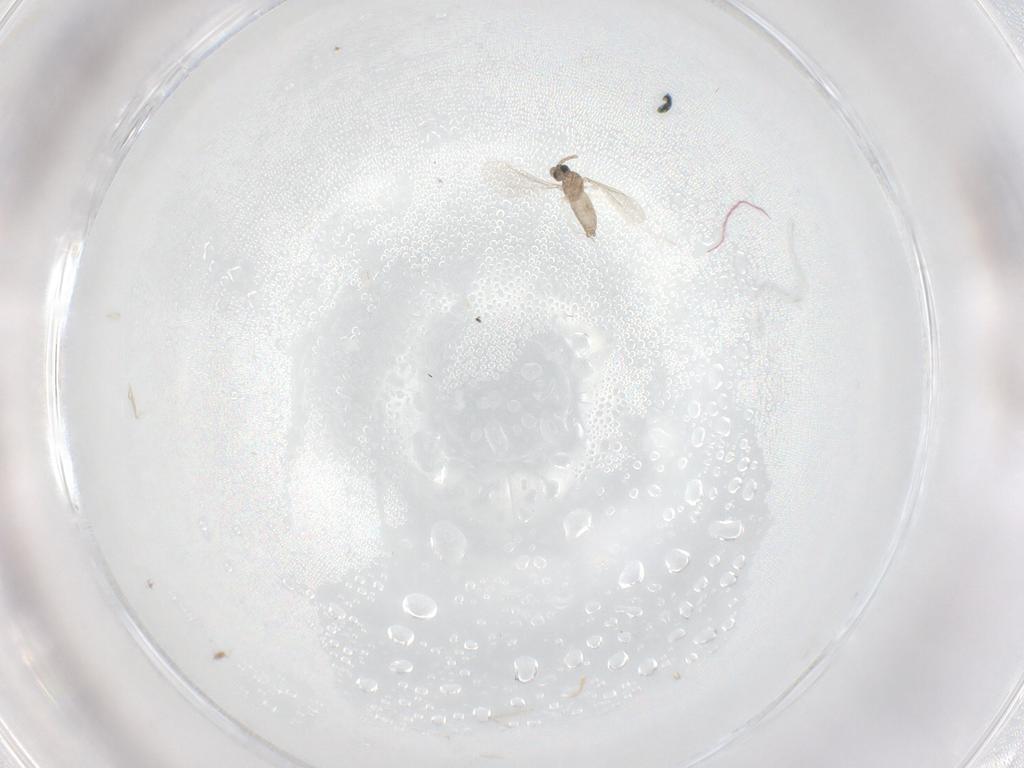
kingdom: Animalia
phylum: Arthropoda
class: Insecta
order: Diptera
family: Cecidomyiidae
